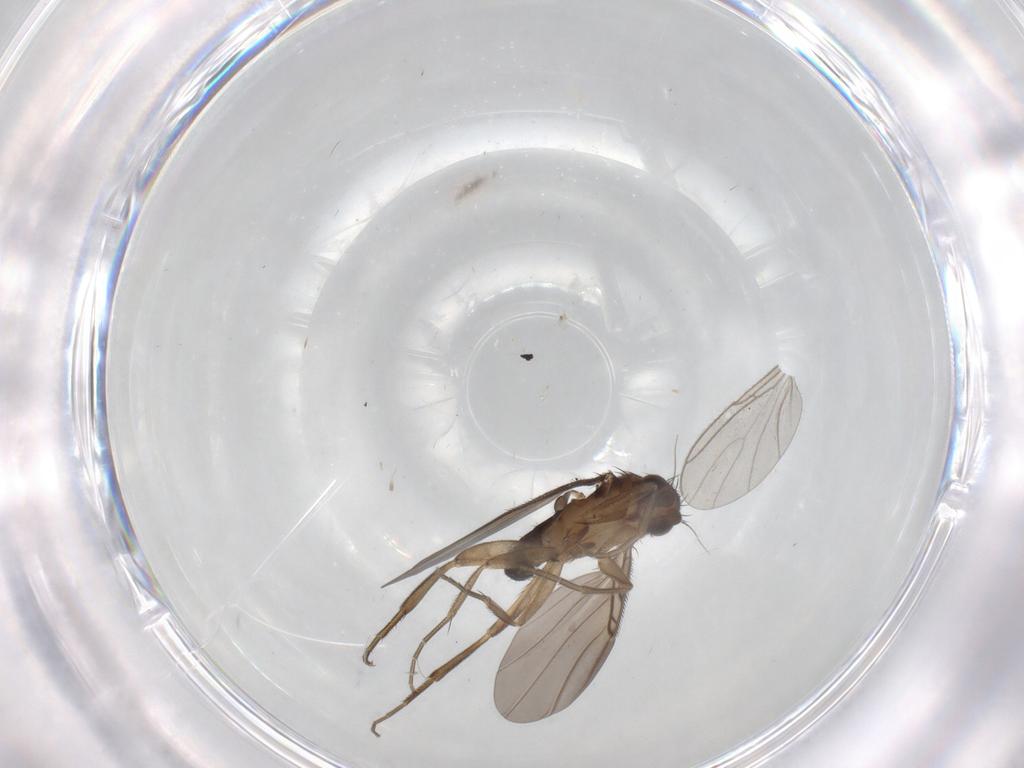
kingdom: Animalia
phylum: Arthropoda
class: Insecta
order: Diptera
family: Phoridae
